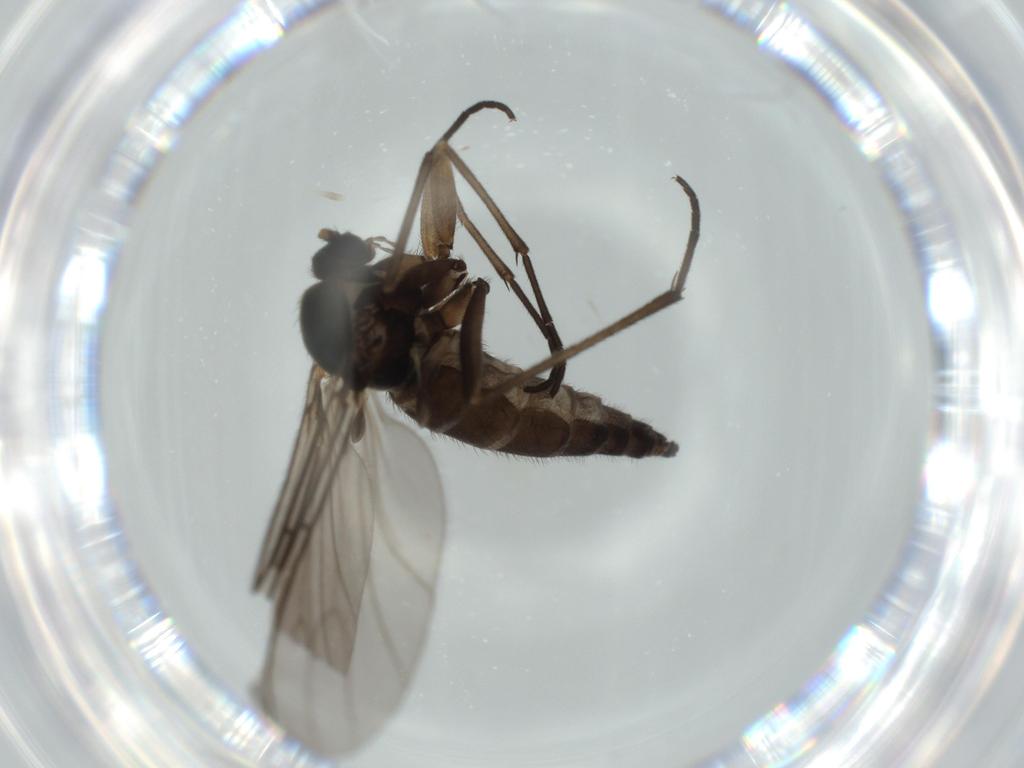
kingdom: Animalia
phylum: Arthropoda
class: Insecta
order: Diptera
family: Sciaridae
